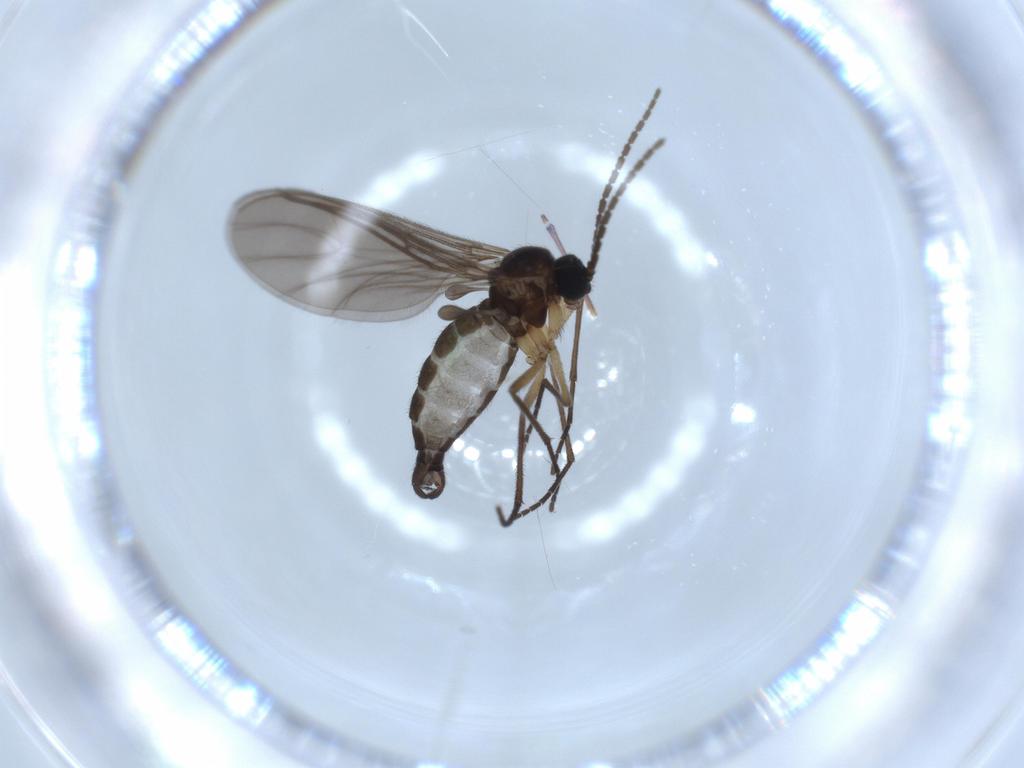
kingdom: Animalia
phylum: Arthropoda
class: Insecta
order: Diptera
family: Sciaridae
